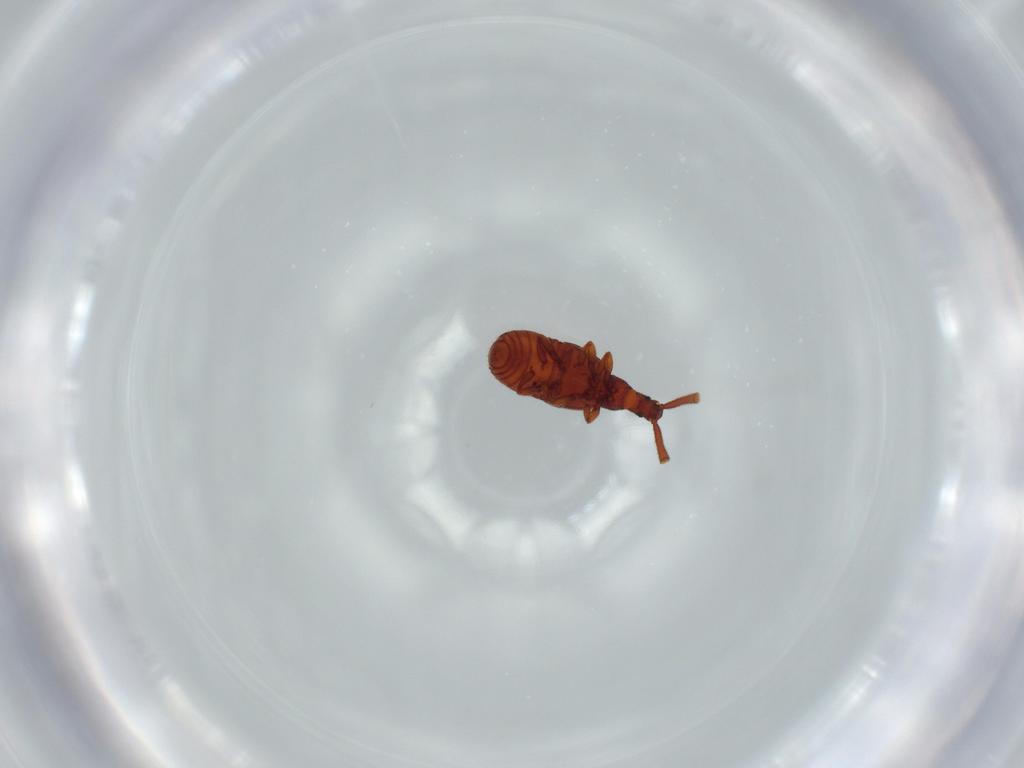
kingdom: Animalia
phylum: Arthropoda
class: Insecta
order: Coleoptera
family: Staphylinidae
